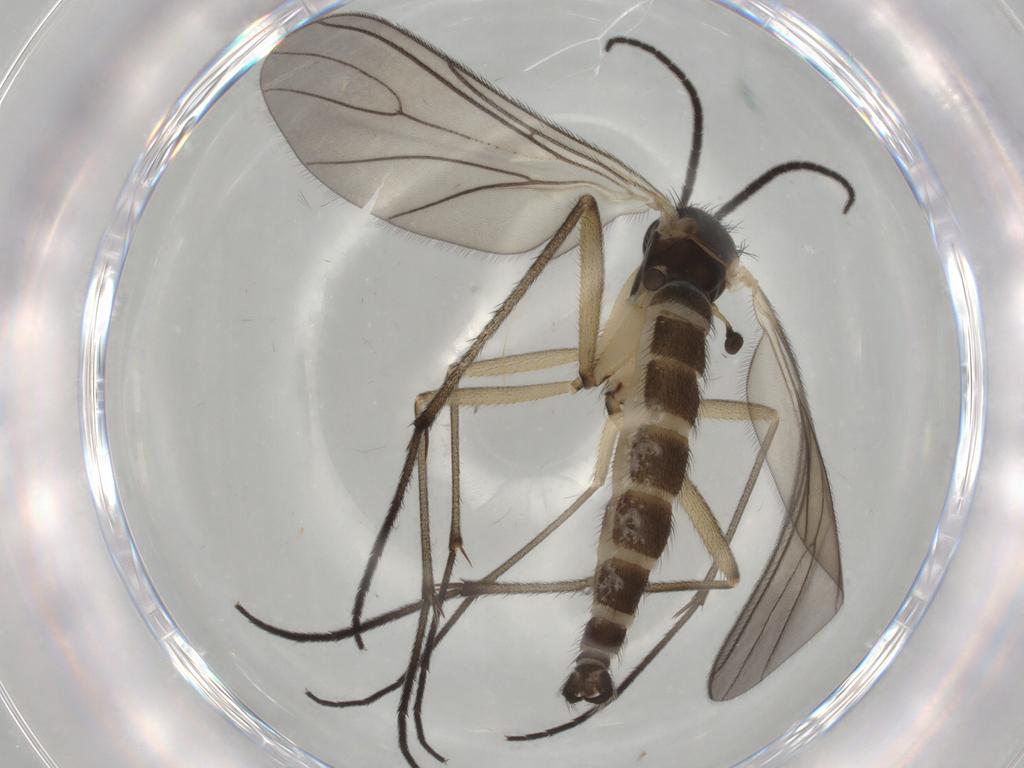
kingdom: Animalia
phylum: Arthropoda
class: Insecta
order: Diptera
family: Sciaridae
